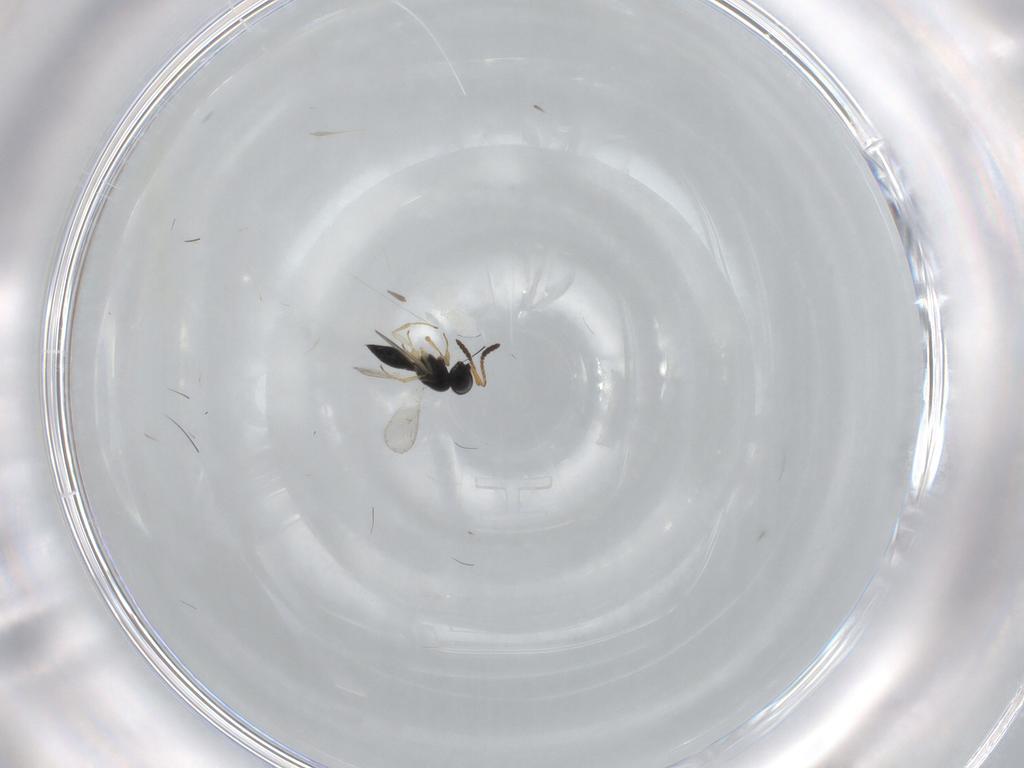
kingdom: Animalia
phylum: Arthropoda
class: Insecta
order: Hymenoptera
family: Scelionidae
